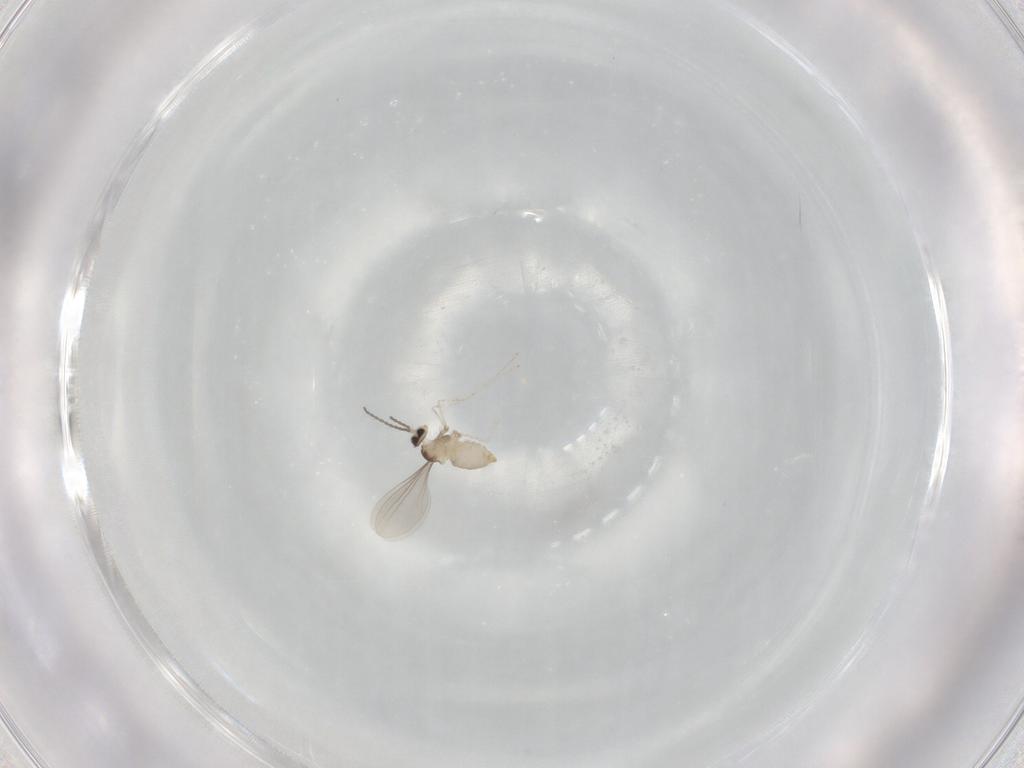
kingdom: Animalia
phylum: Arthropoda
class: Insecta
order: Diptera
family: Cecidomyiidae
